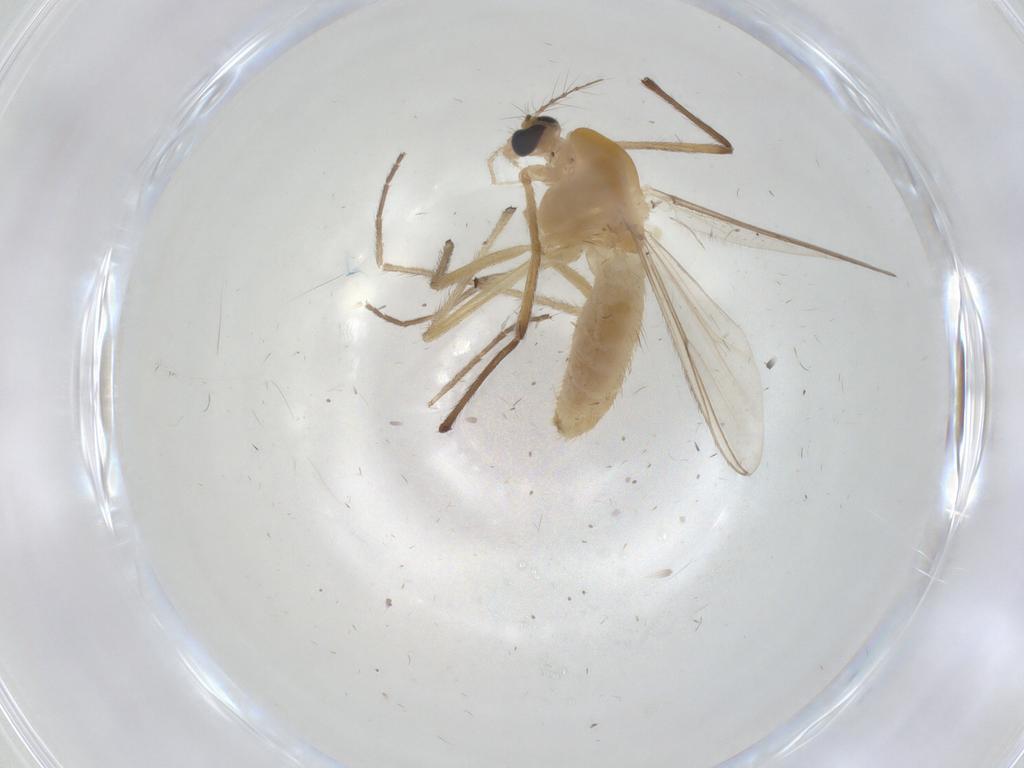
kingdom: Animalia
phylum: Arthropoda
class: Insecta
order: Diptera
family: Chironomidae
